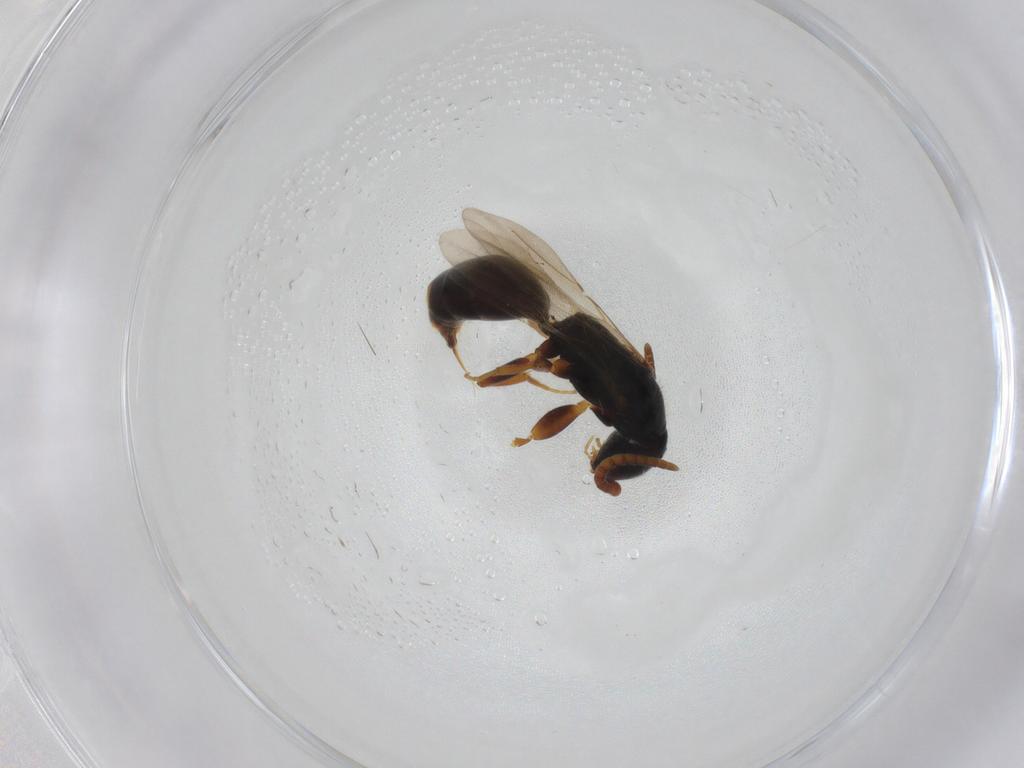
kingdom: Animalia
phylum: Arthropoda
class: Insecta
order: Hymenoptera
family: Bethylidae
